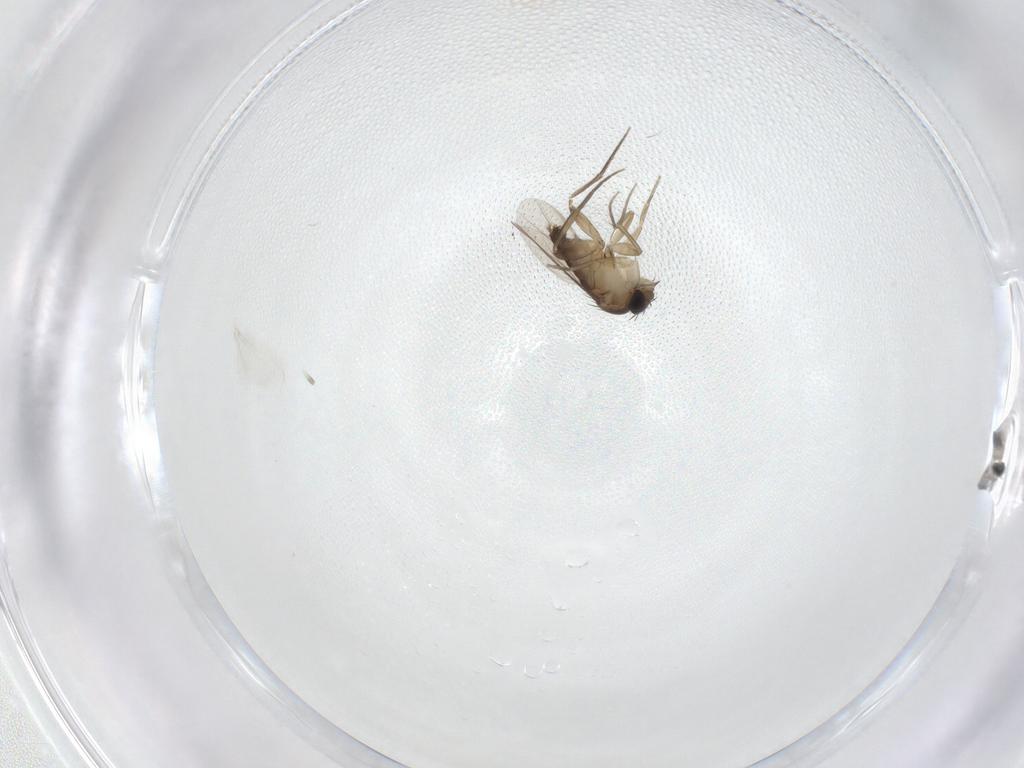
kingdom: Animalia
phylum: Arthropoda
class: Insecta
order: Diptera
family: Cecidomyiidae
